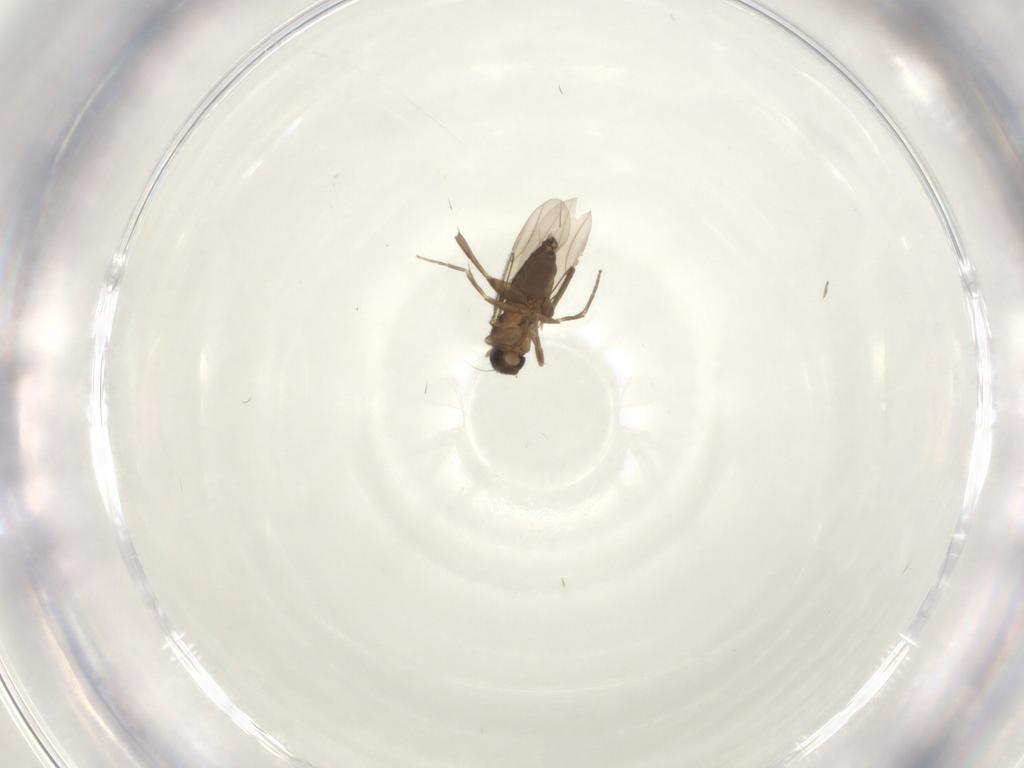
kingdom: Animalia
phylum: Arthropoda
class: Insecta
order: Diptera
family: Phoridae
